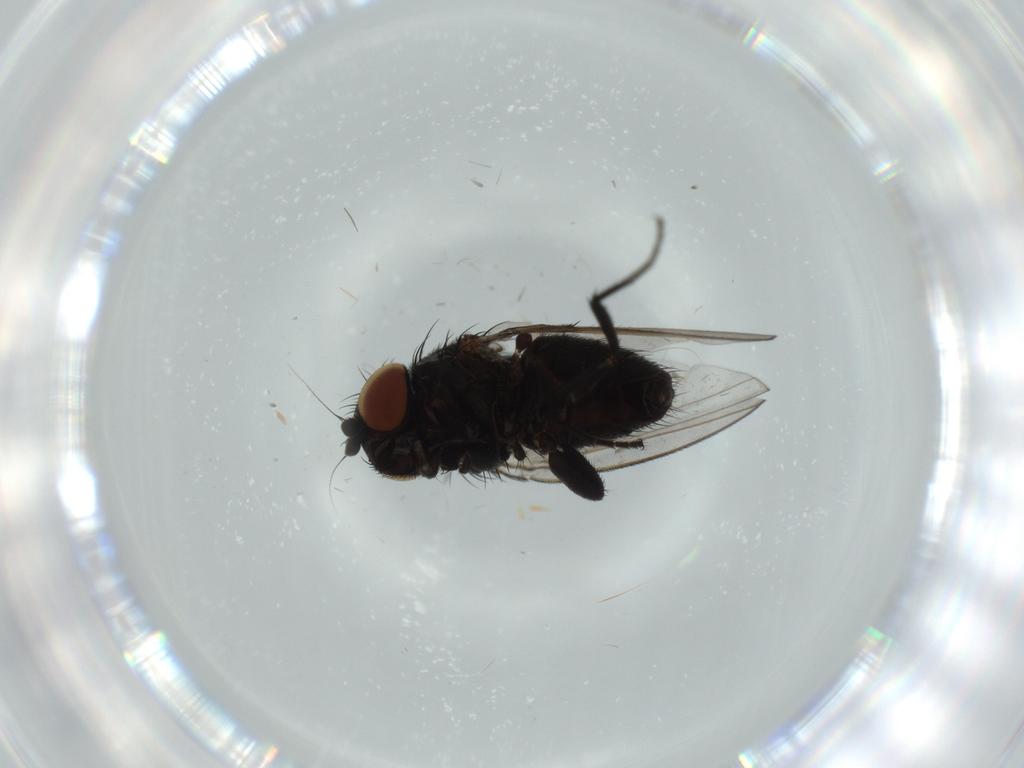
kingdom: Animalia
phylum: Arthropoda
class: Insecta
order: Diptera
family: Milichiidae
